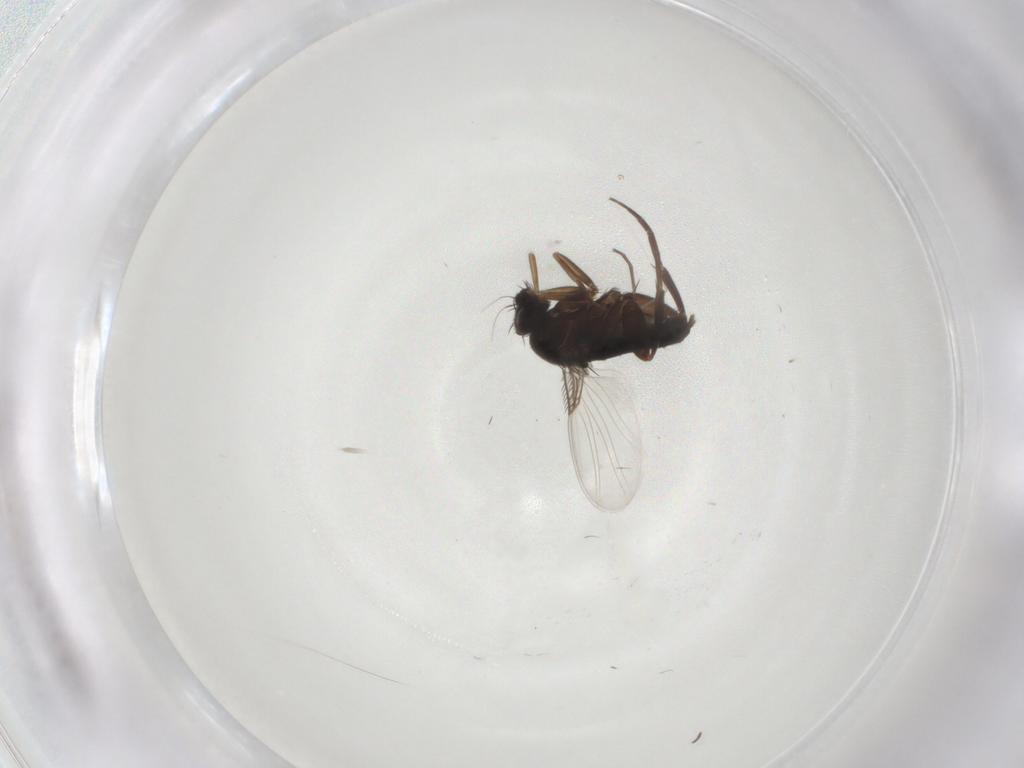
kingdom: Animalia
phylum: Arthropoda
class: Insecta
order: Diptera
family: Phoridae
